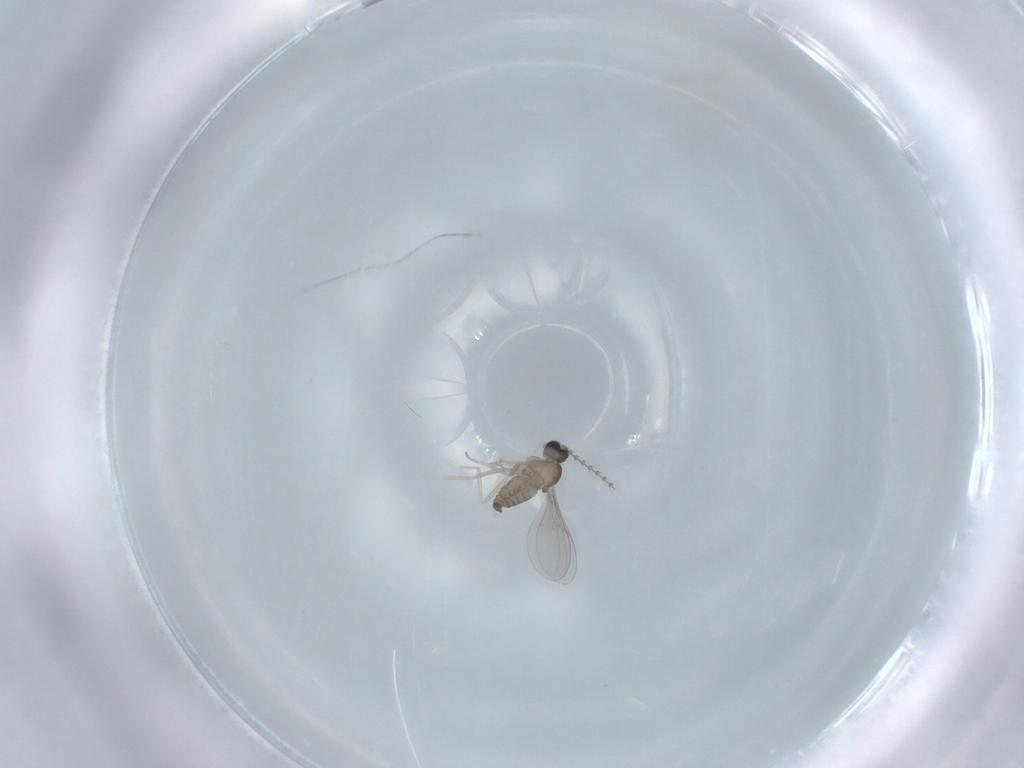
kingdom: Animalia
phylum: Arthropoda
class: Insecta
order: Diptera
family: Cecidomyiidae
